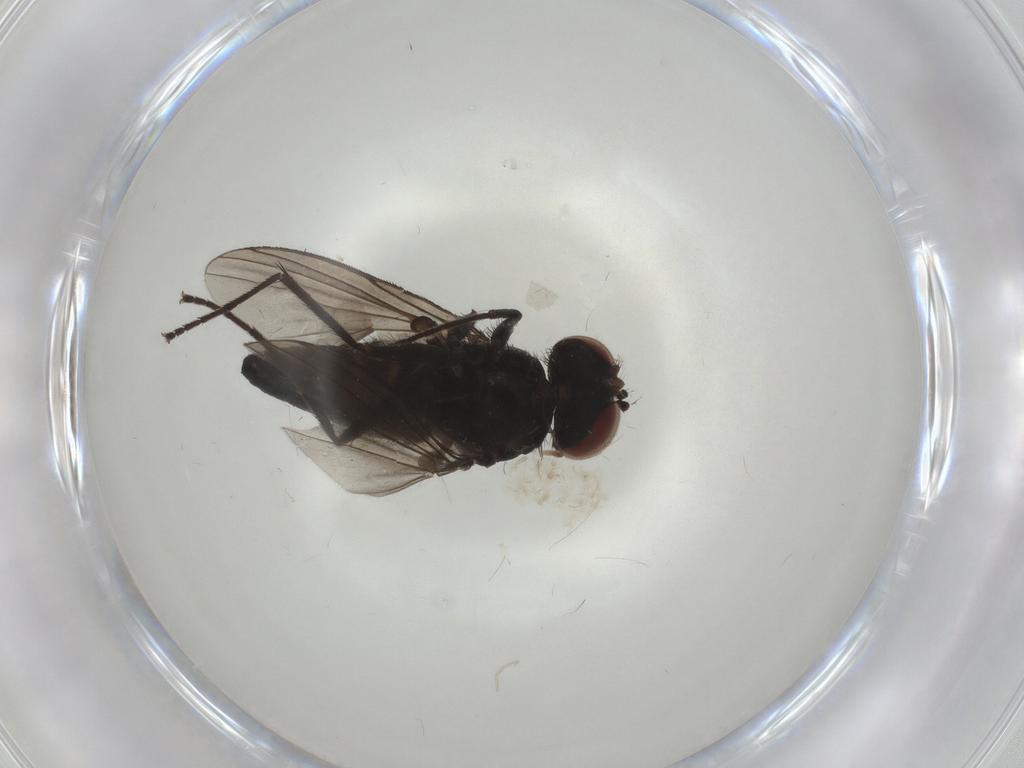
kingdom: Animalia
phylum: Arthropoda
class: Insecta
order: Diptera
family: Dolichopodidae
